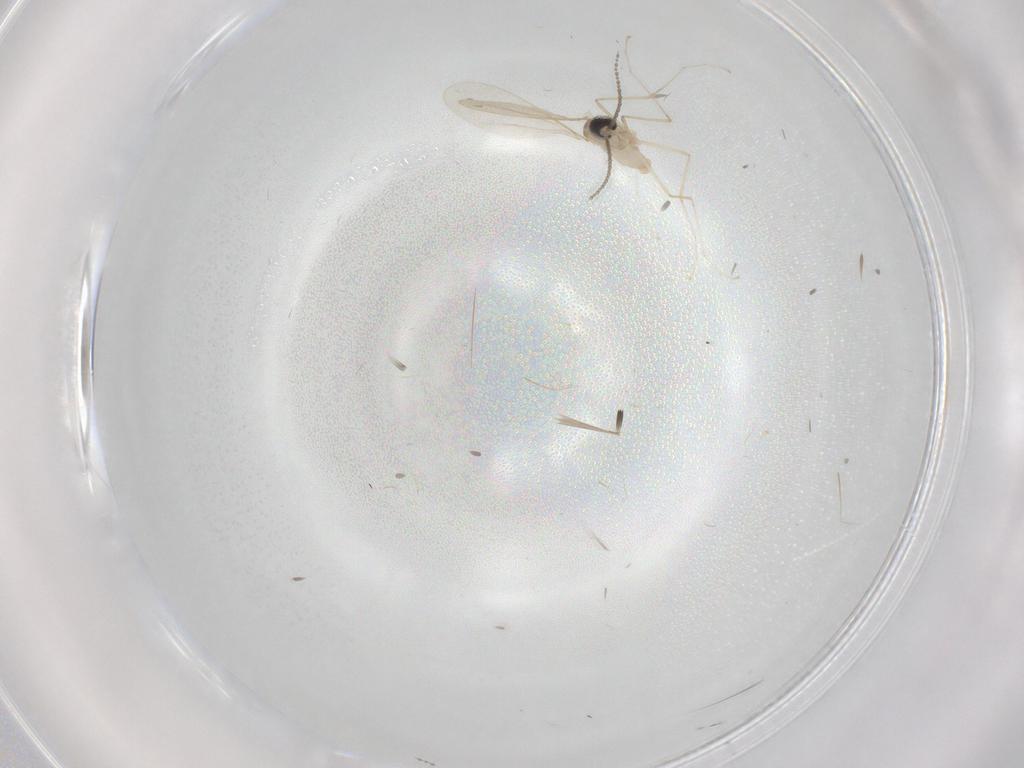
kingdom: Animalia
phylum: Arthropoda
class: Insecta
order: Diptera
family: Cecidomyiidae
